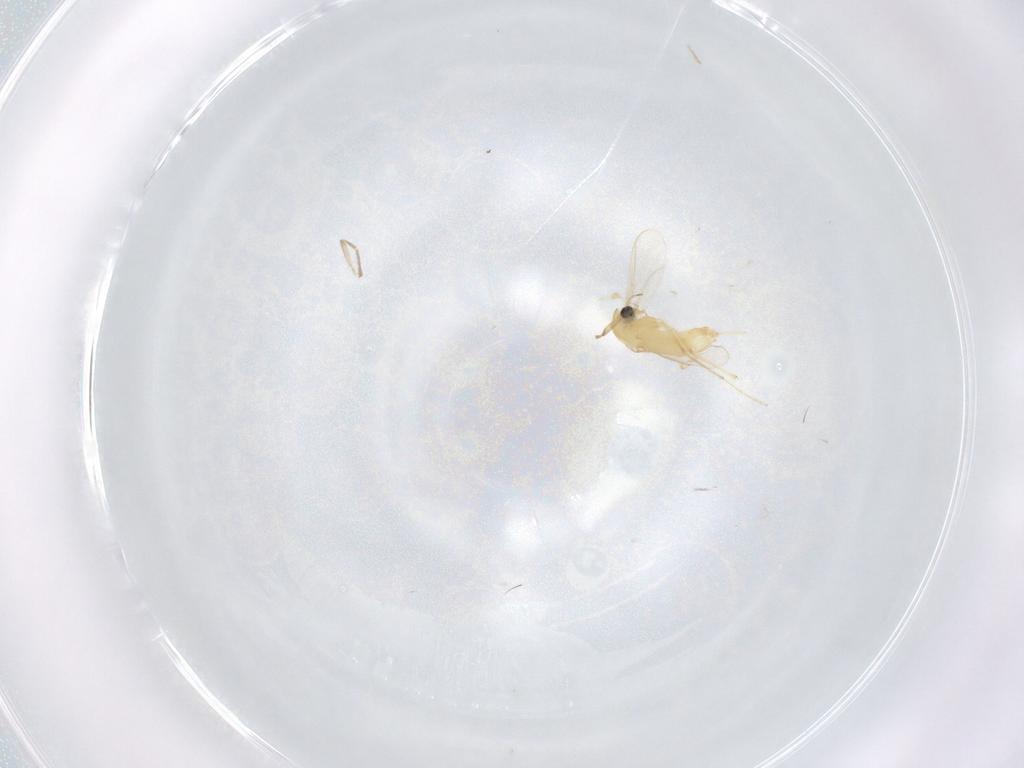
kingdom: Animalia
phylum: Arthropoda
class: Insecta
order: Diptera
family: Chironomidae
